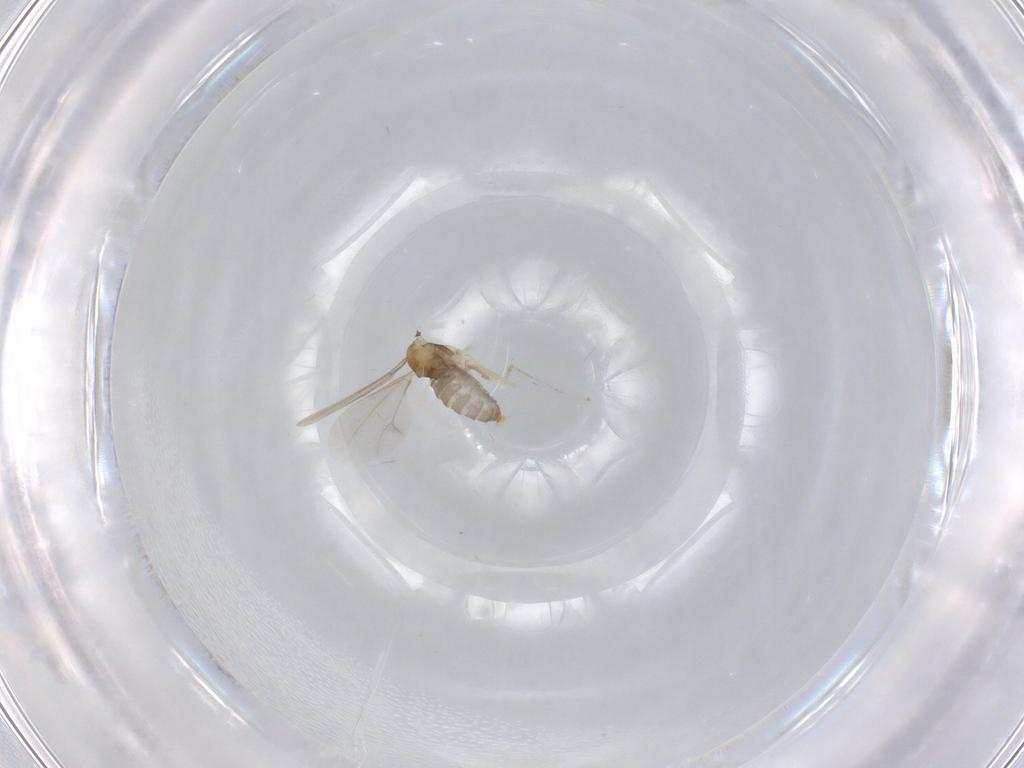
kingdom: Animalia
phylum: Arthropoda
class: Insecta
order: Diptera
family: Cecidomyiidae
